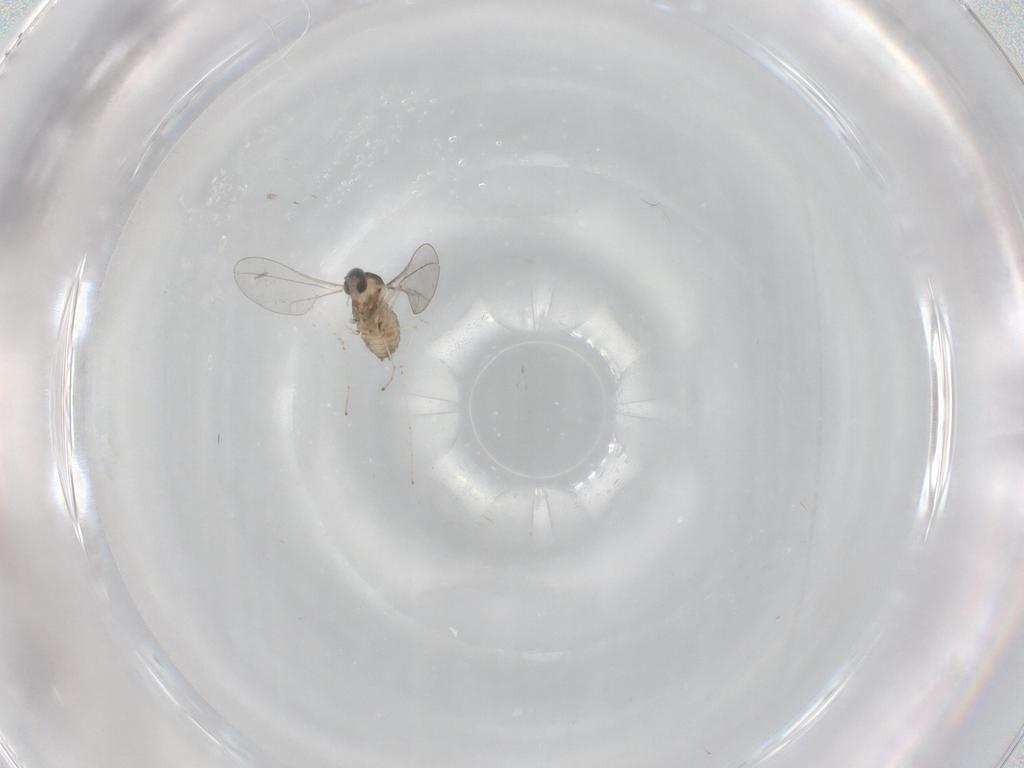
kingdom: Animalia
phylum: Arthropoda
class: Insecta
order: Diptera
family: Cecidomyiidae
